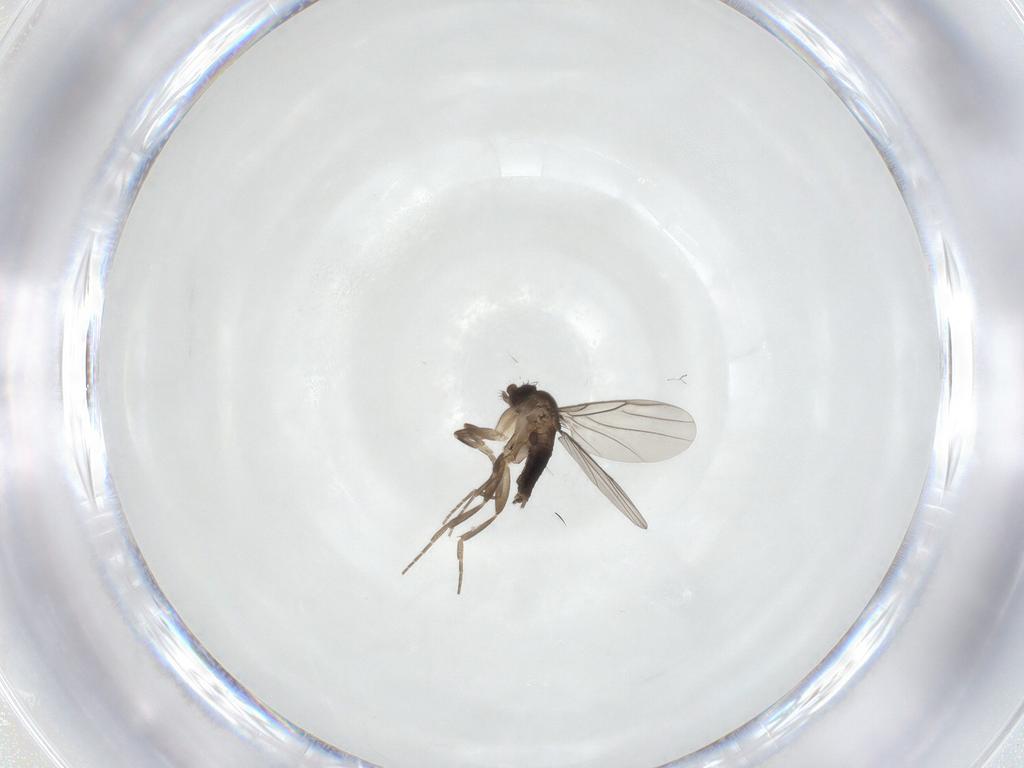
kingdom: Animalia
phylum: Arthropoda
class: Insecta
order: Diptera
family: Phoridae
